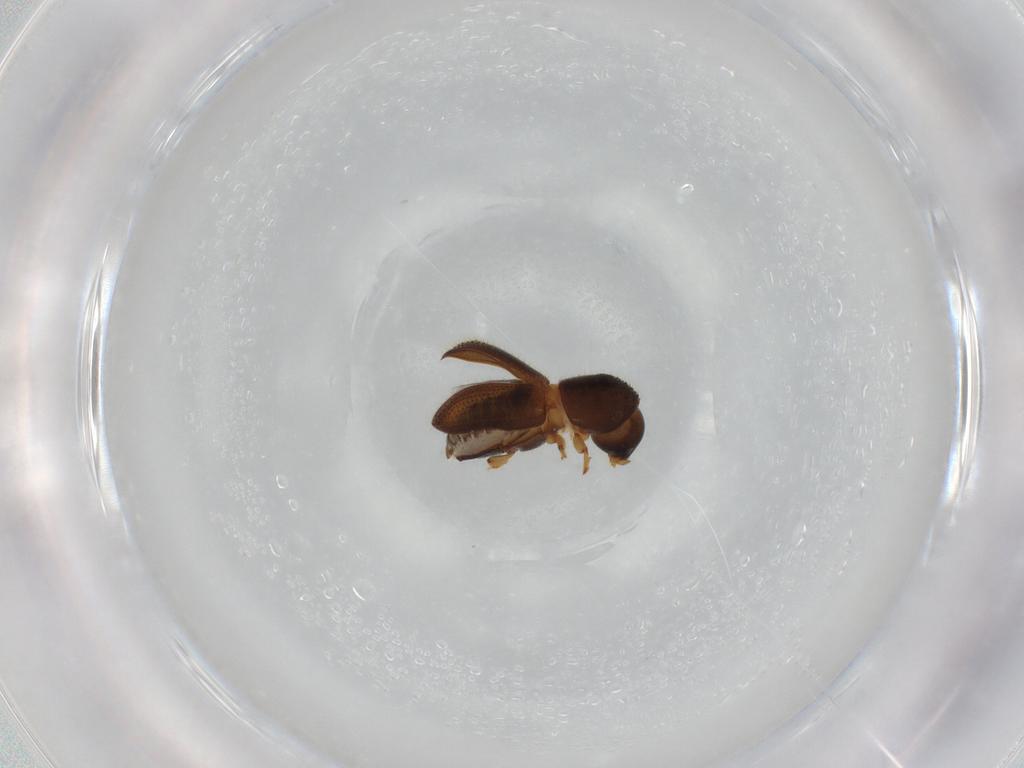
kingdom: Animalia
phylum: Arthropoda
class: Insecta
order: Coleoptera
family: Curculionidae
